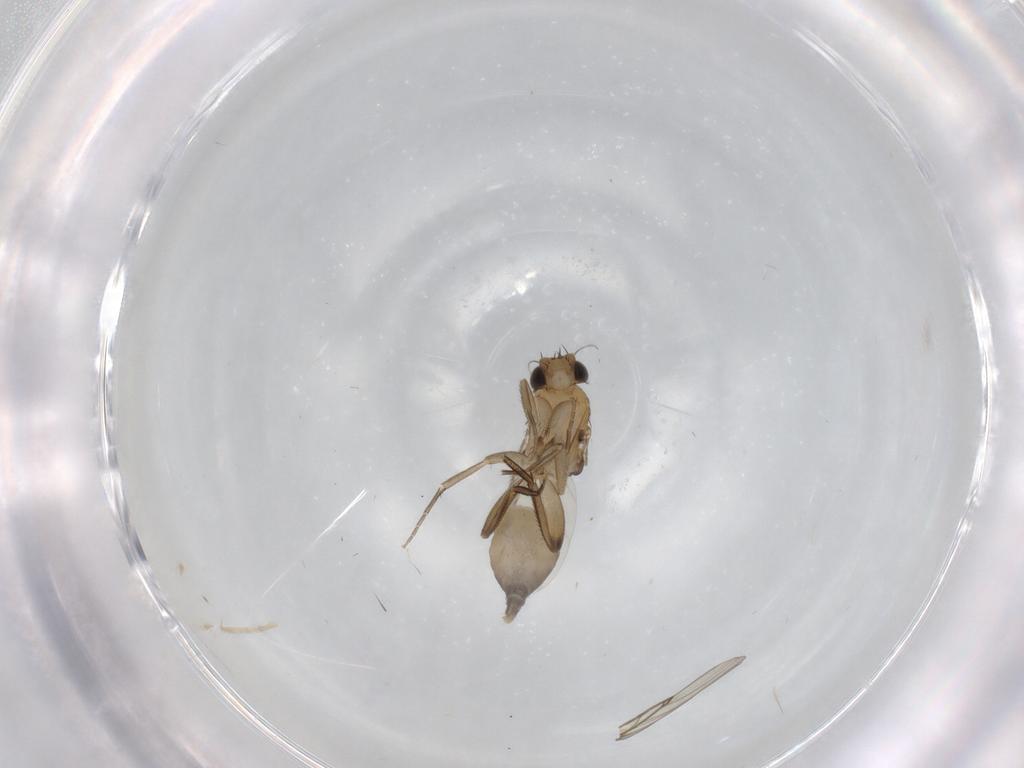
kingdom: Animalia
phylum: Arthropoda
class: Insecta
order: Diptera
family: Phoridae
